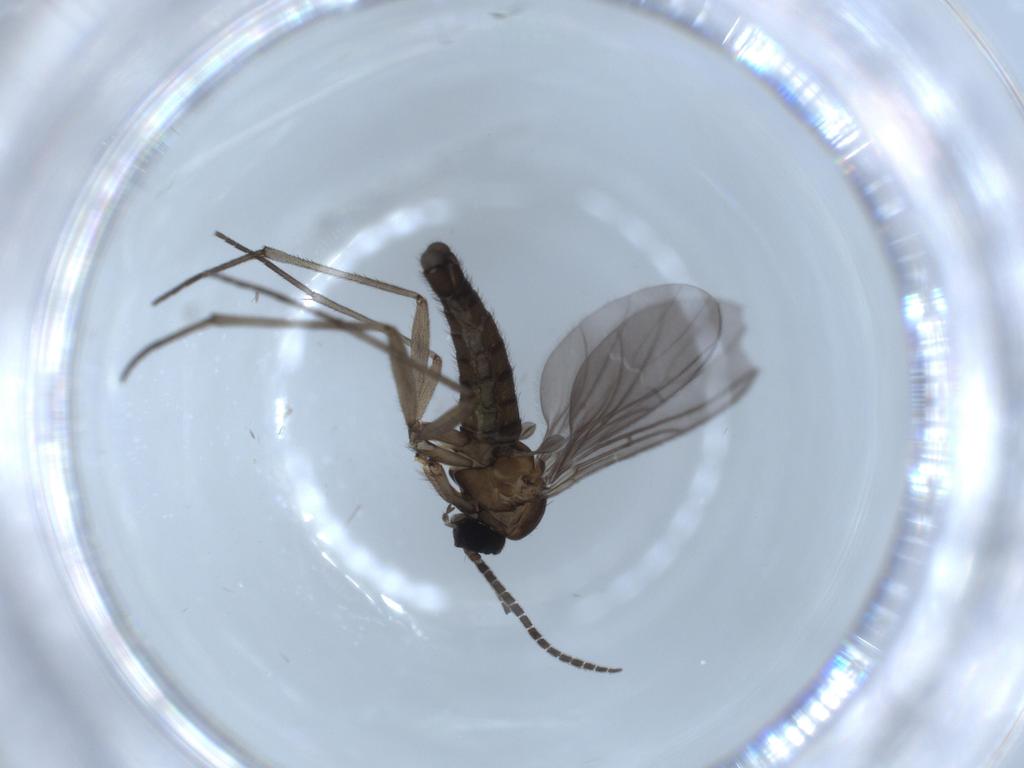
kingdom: Animalia
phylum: Arthropoda
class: Insecta
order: Diptera
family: Sciaridae
